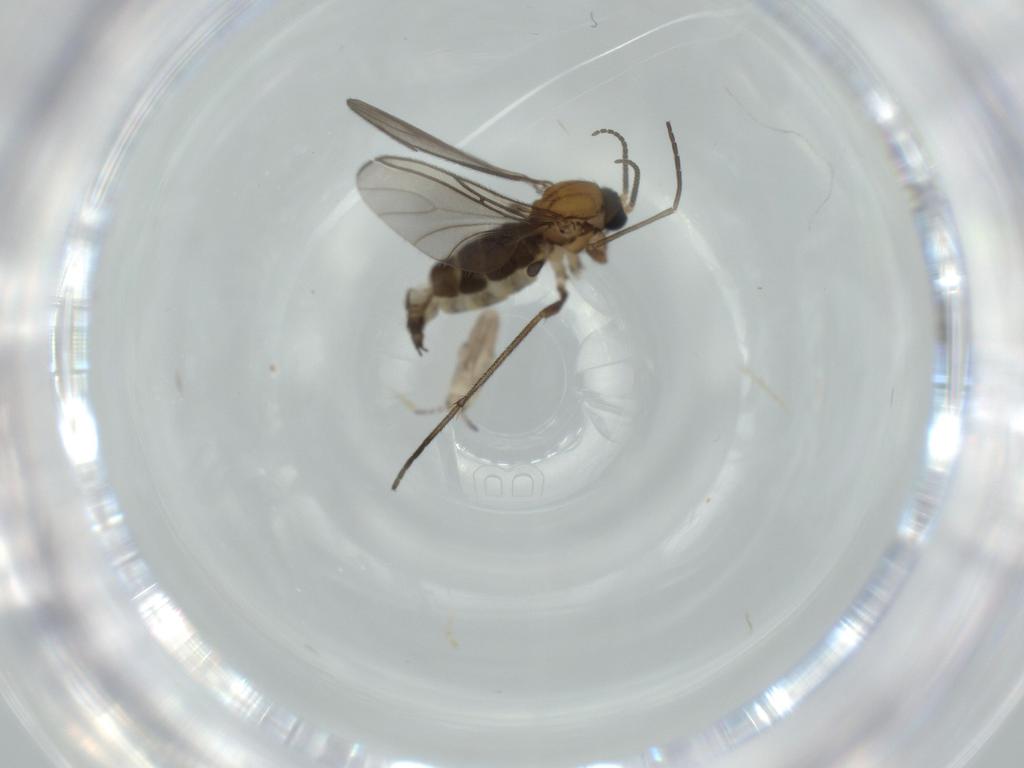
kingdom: Animalia
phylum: Arthropoda
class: Insecta
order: Diptera
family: Sciaridae
